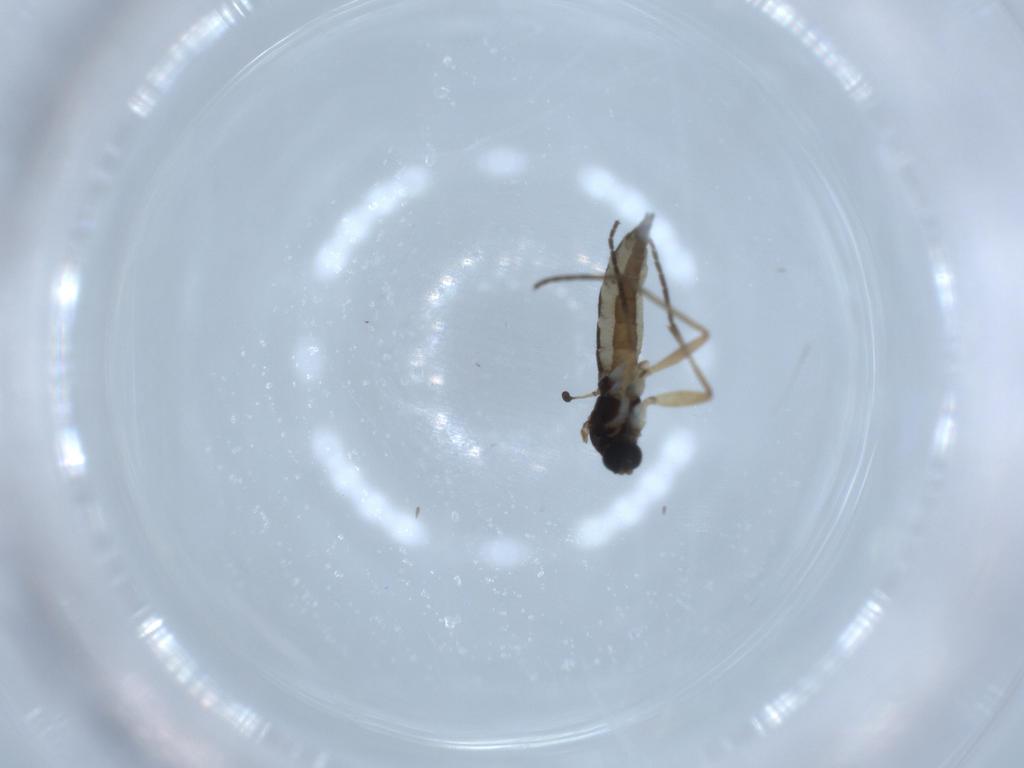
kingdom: Animalia
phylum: Arthropoda
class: Insecta
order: Diptera
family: Sciaridae
